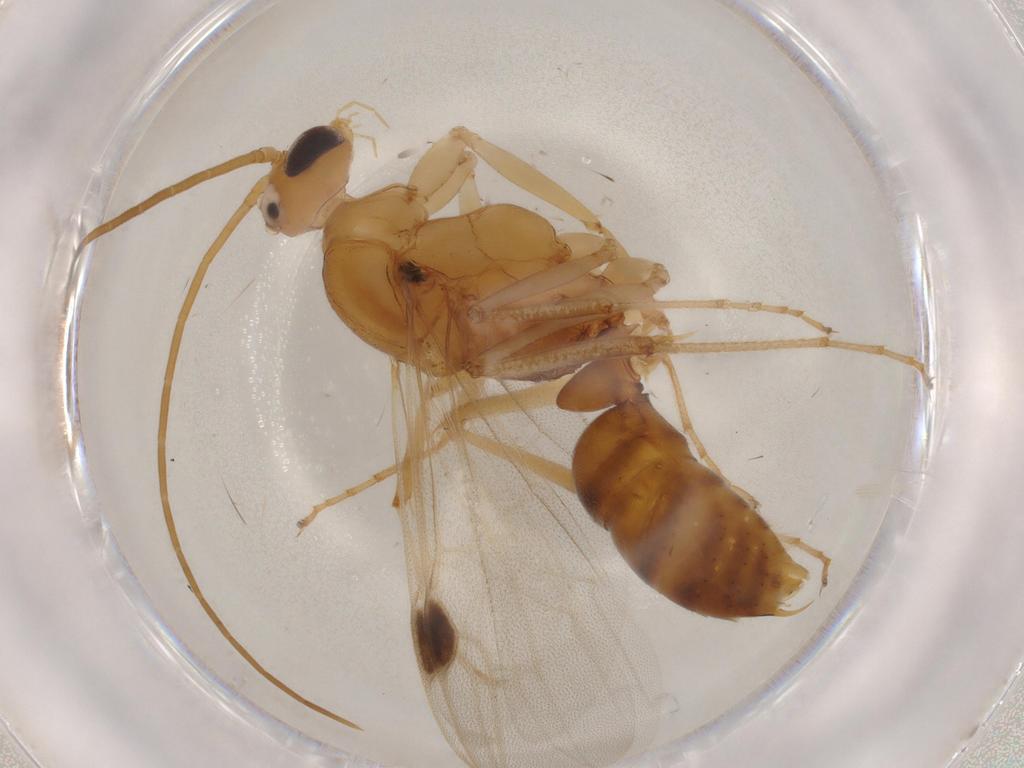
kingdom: Animalia
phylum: Arthropoda
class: Insecta
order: Hymenoptera
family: Formicidae
